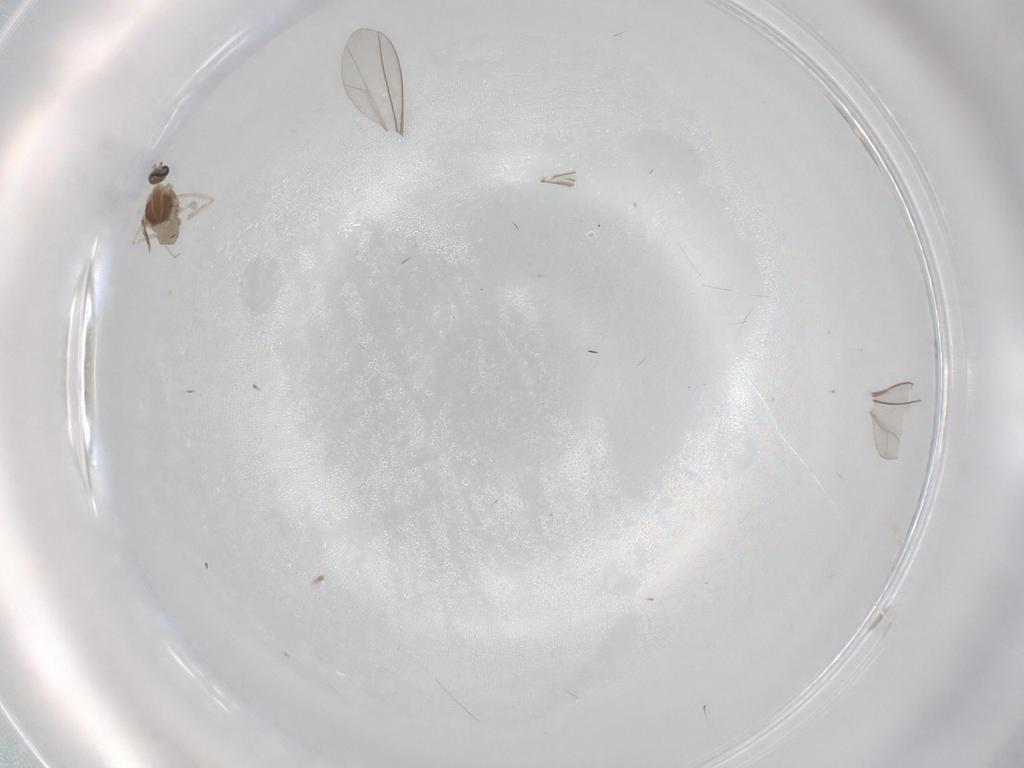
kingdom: Animalia
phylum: Arthropoda
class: Insecta
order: Diptera
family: Cecidomyiidae
